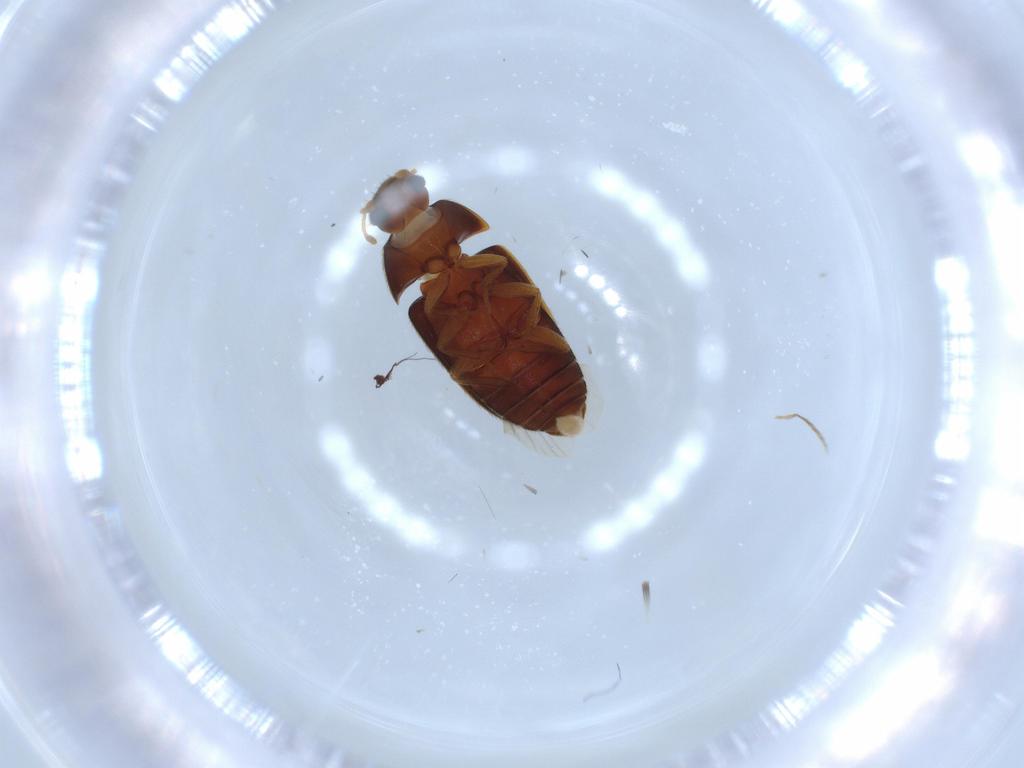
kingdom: Animalia
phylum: Arthropoda
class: Insecta
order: Coleoptera
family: Mycetophagidae
